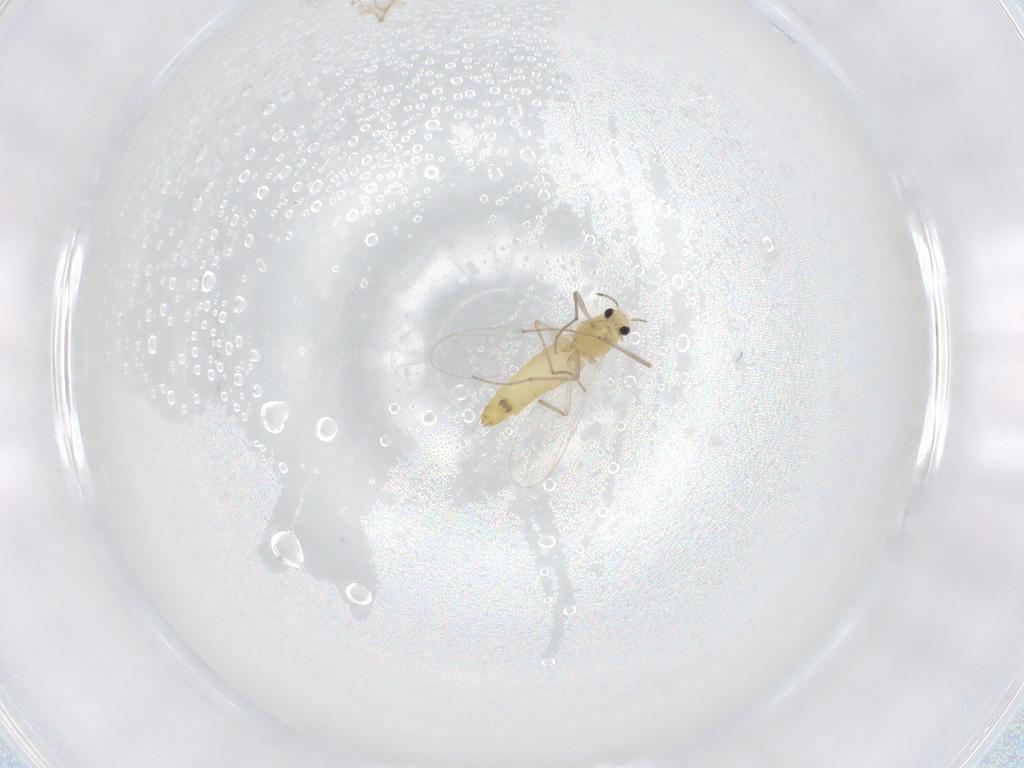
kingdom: Animalia
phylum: Arthropoda
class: Insecta
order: Diptera
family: Chironomidae
